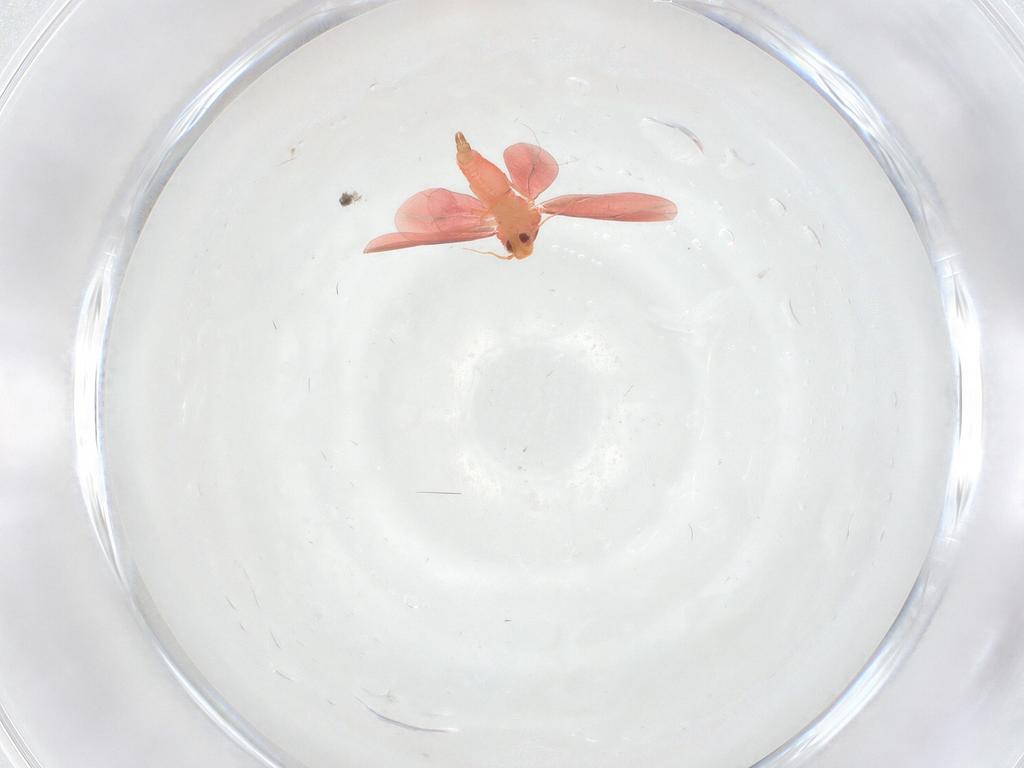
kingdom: Animalia
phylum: Arthropoda
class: Insecta
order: Hemiptera
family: Aleyrodidae
